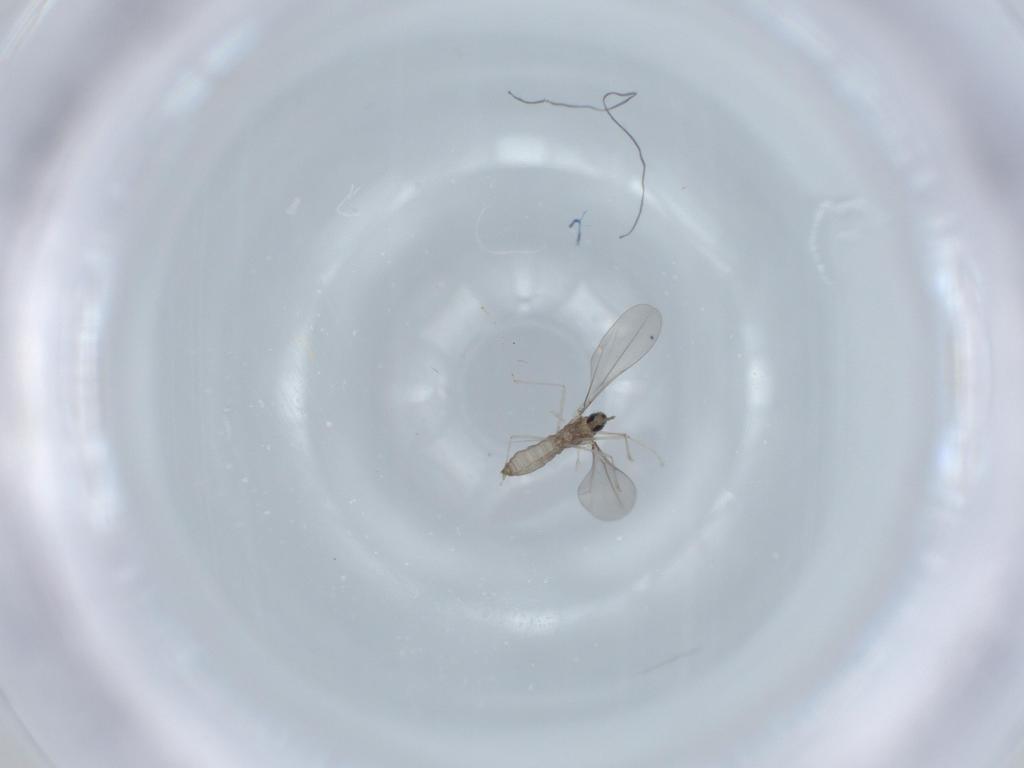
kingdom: Animalia
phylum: Arthropoda
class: Insecta
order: Diptera
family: Cecidomyiidae
